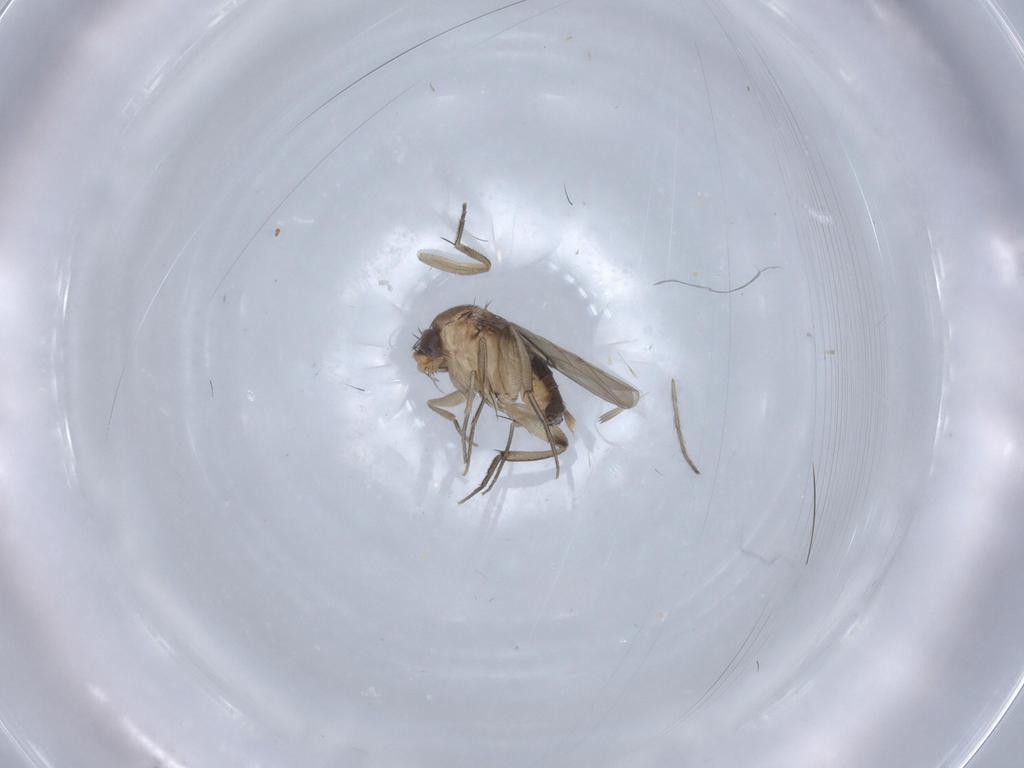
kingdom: Animalia
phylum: Arthropoda
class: Insecta
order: Diptera
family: Phoridae
